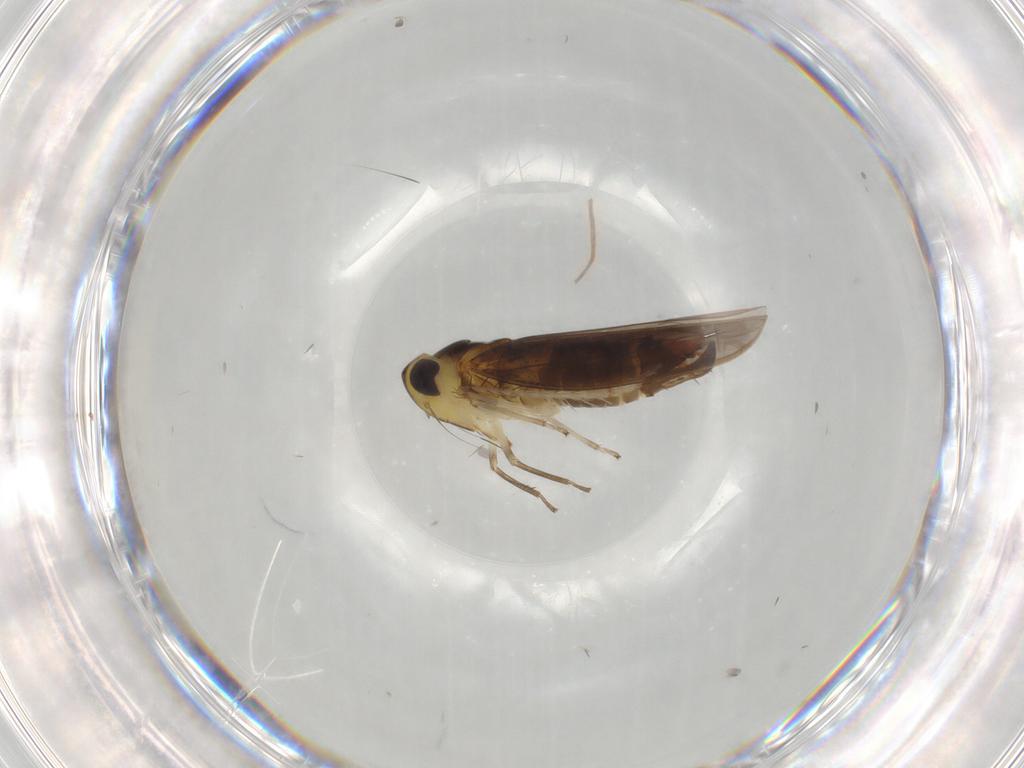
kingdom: Animalia
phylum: Arthropoda
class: Insecta
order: Hemiptera
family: Cicadellidae
